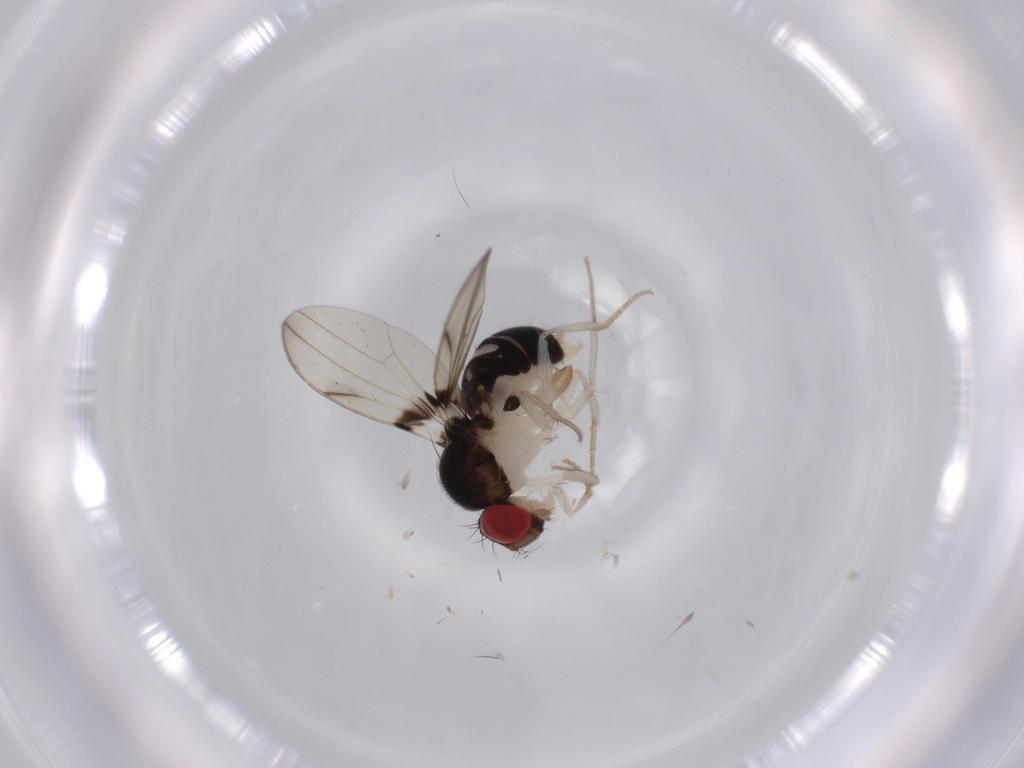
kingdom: Animalia
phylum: Arthropoda
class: Insecta
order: Diptera
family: Drosophilidae
